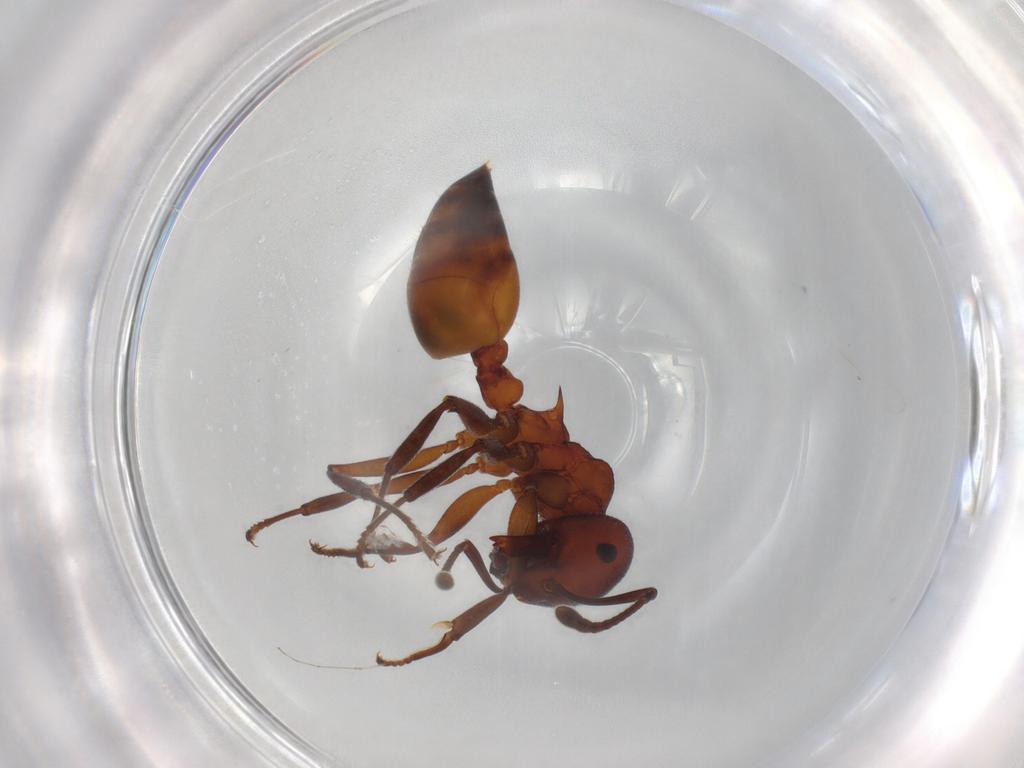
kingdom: Animalia
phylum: Arthropoda
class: Insecta
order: Hymenoptera
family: Formicidae
